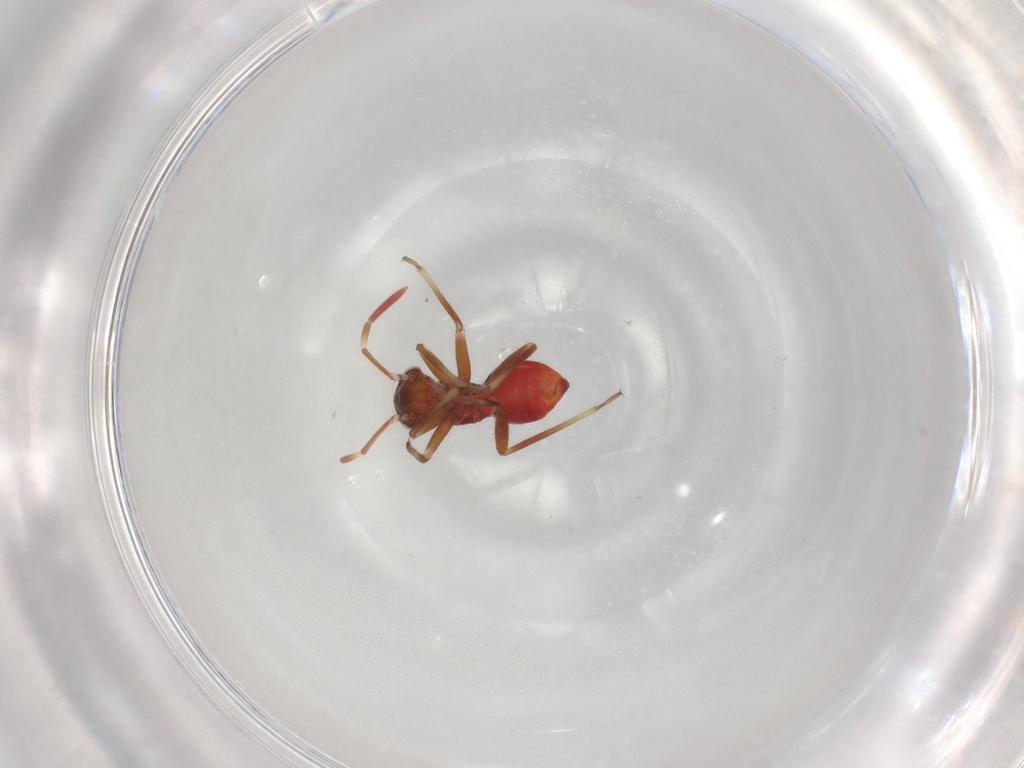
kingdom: Animalia
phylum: Arthropoda
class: Insecta
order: Hemiptera
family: Miridae
